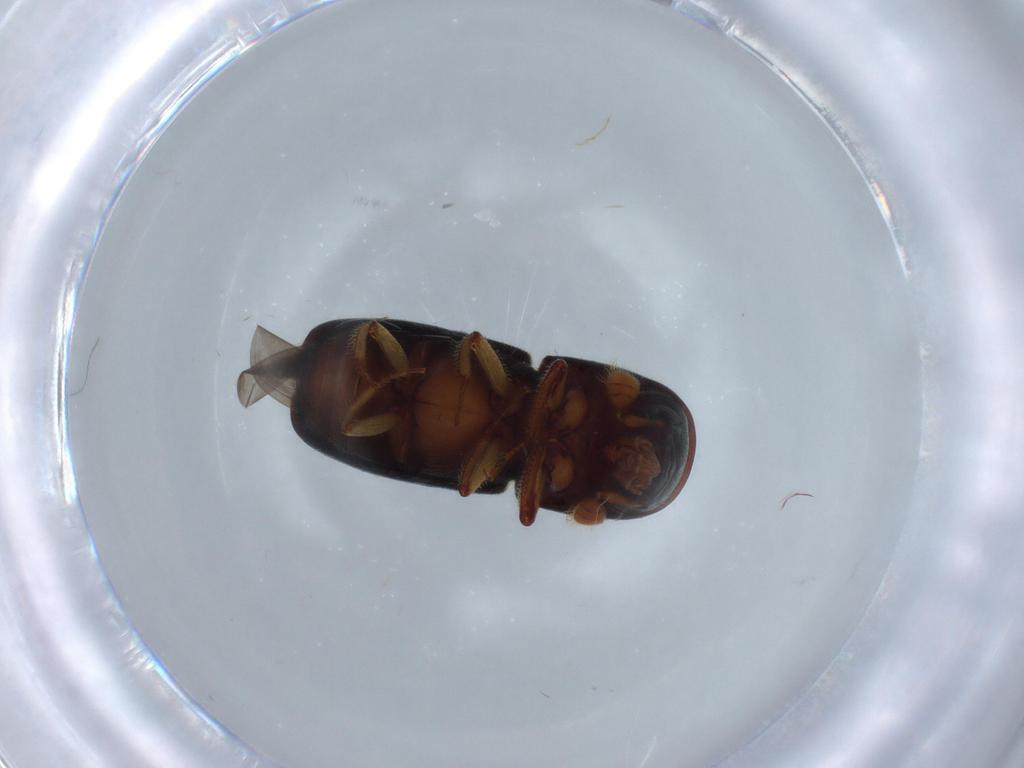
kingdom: Animalia
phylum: Arthropoda
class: Insecta
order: Coleoptera
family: Curculionidae
